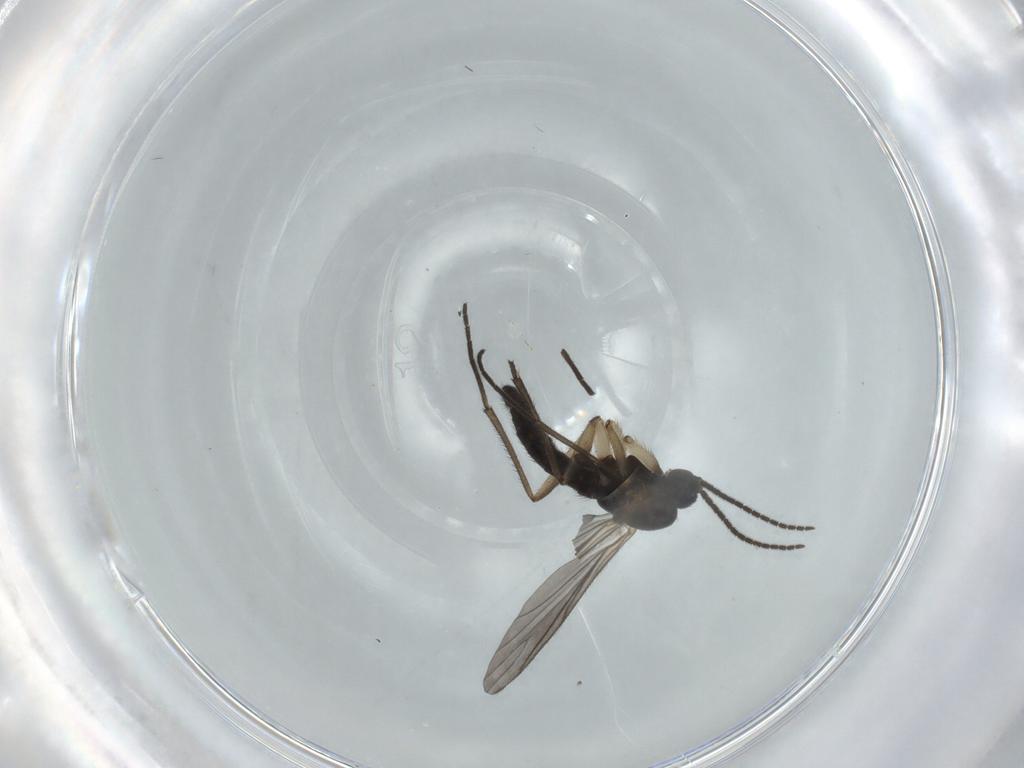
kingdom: Animalia
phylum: Arthropoda
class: Insecta
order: Diptera
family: Sciaridae
